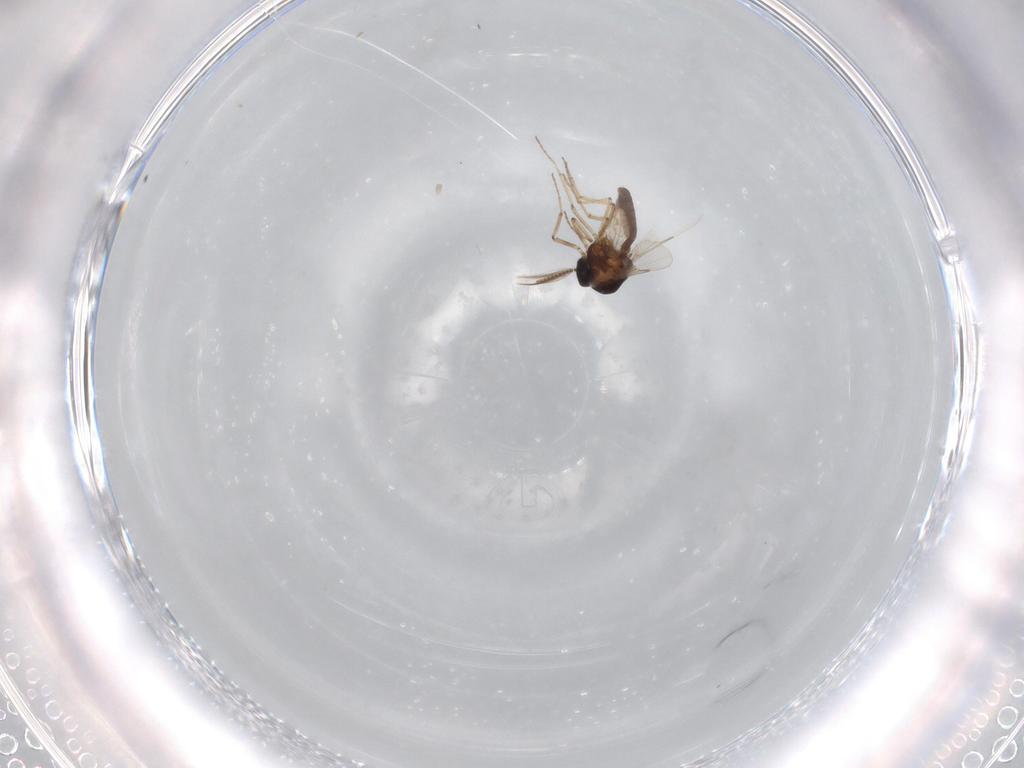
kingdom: Animalia
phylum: Arthropoda
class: Insecta
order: Diptera
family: Ceratopogonidae
